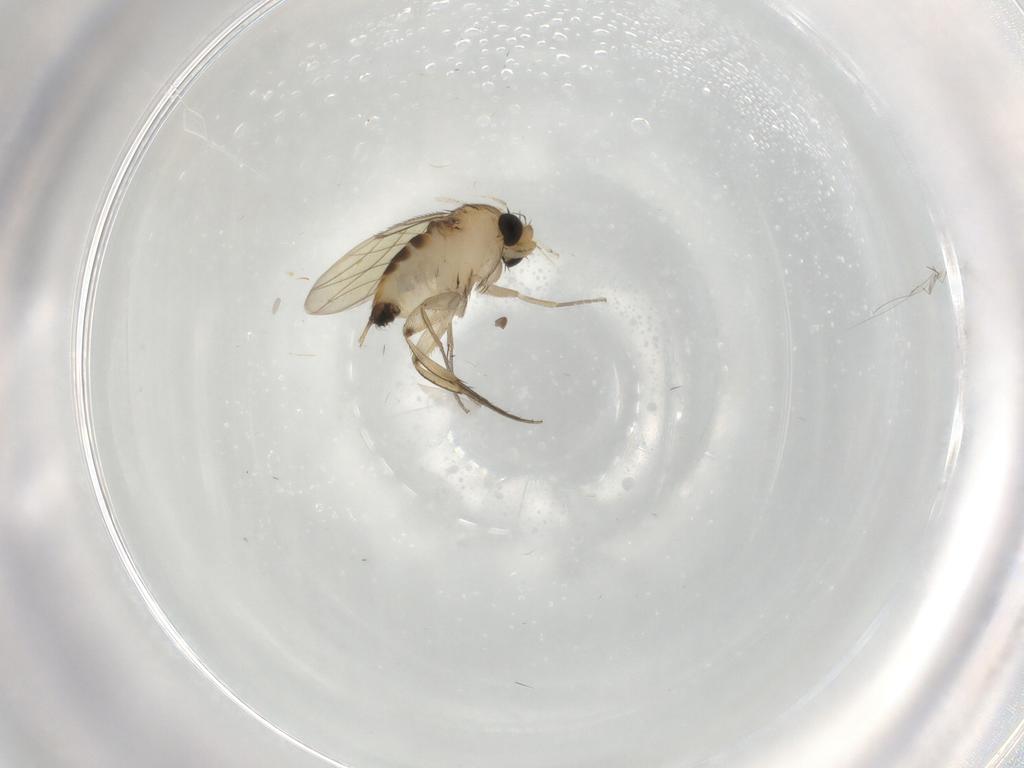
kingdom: Animalia
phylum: Arthropoda
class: Insecta
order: Diptera
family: Cecidomyiidae
